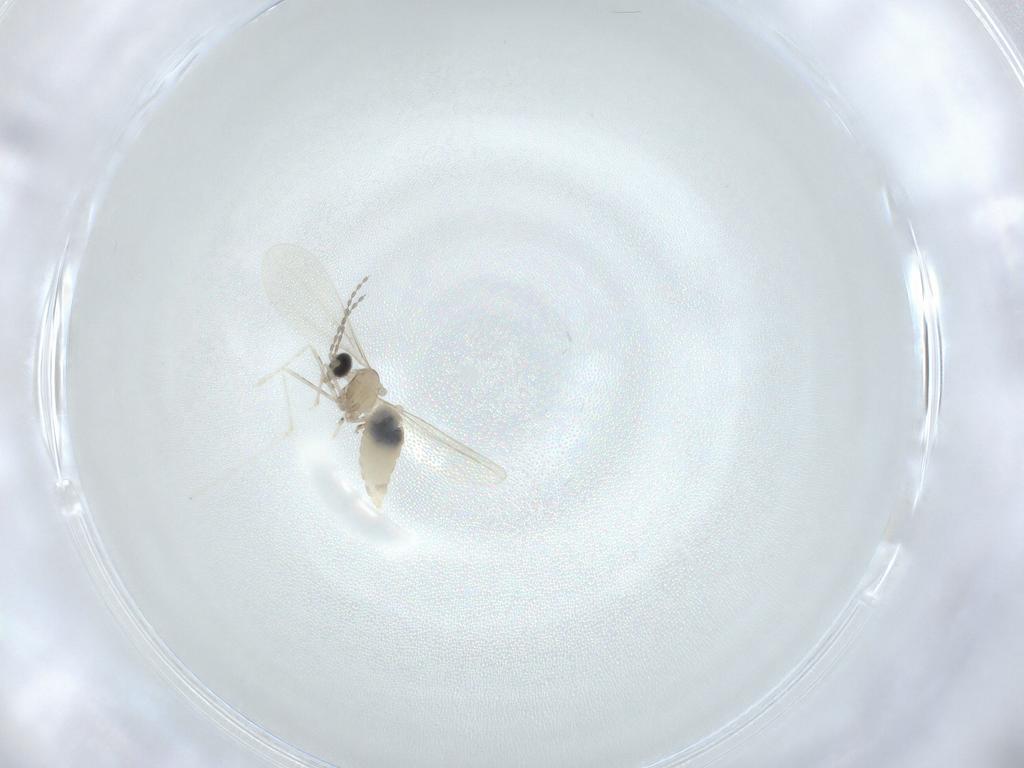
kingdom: Animalia
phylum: Arthropoda
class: Insecta
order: Diptera
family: Cecidomyiidae
